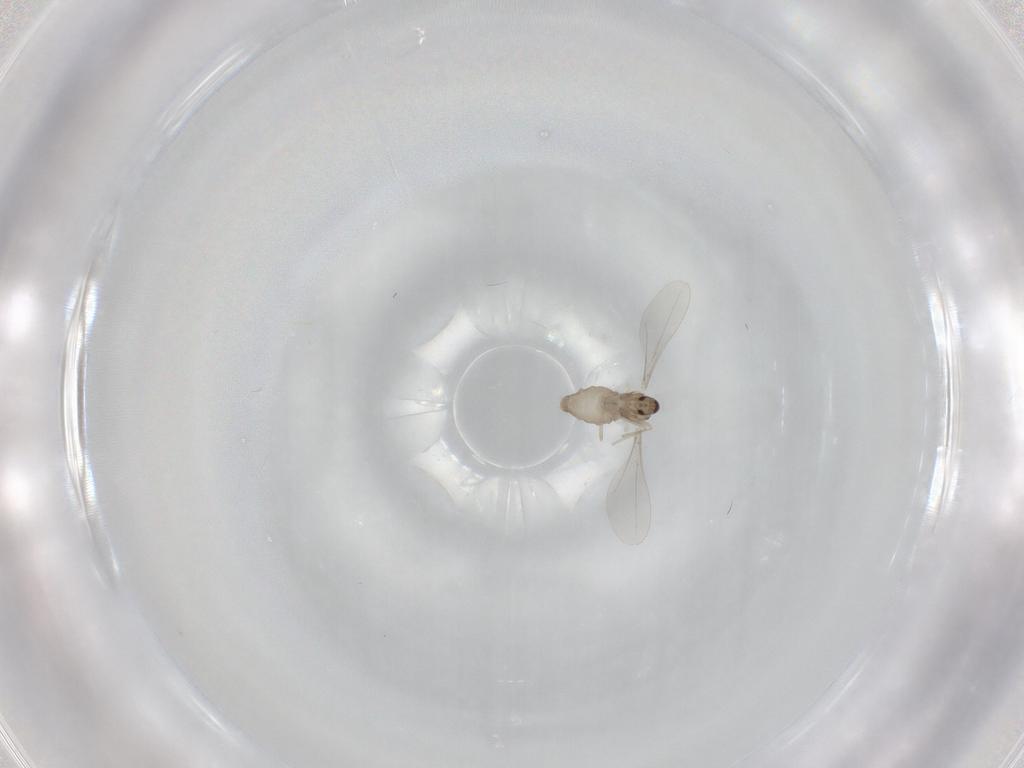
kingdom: Animalia
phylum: Arthropoda
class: Insecta
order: Diptera
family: Cecidomyiidae
